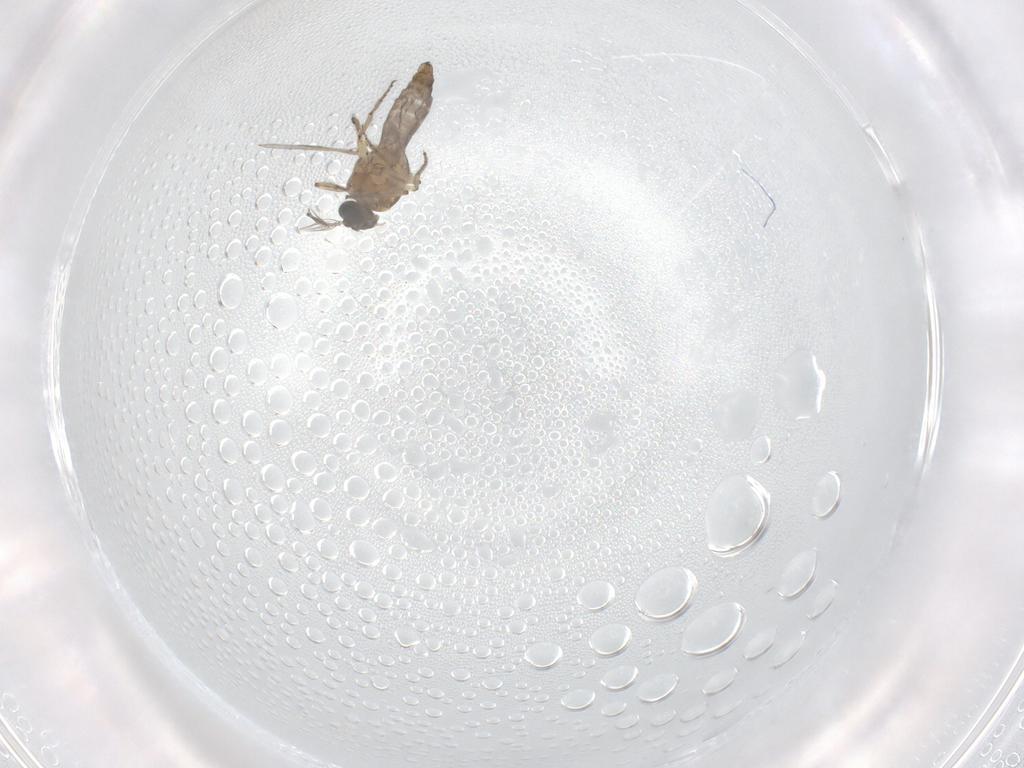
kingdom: Animalia
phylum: Arthropoda
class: Insecta
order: Diptera
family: Ceratopogonidae
